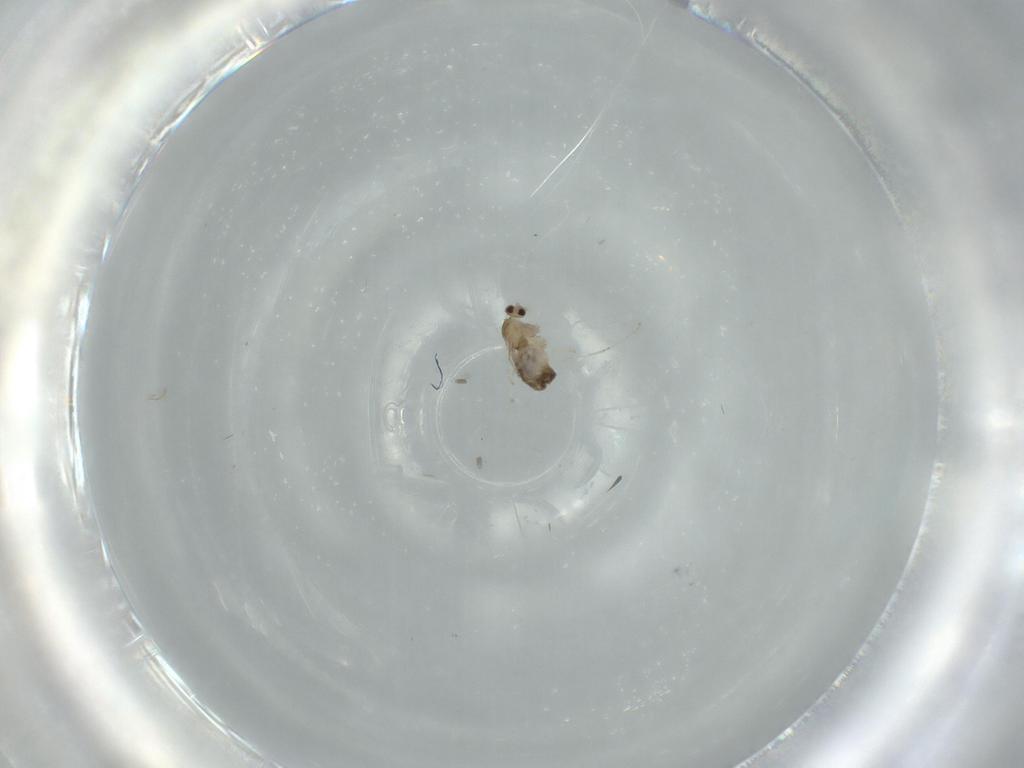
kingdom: Animalia
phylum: Arthropoda
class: Insecta
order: Diptera
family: Cecidomyiidae
